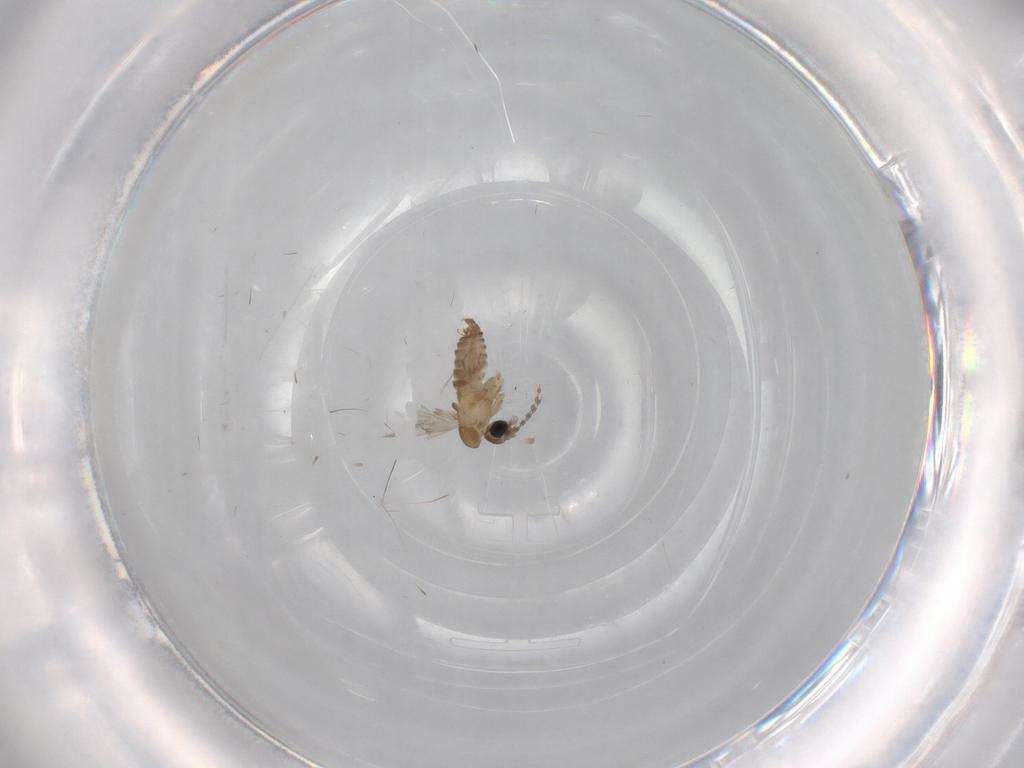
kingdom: Animalia
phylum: Arthropoda
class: Insecta
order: Diptera
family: Psychodidae
